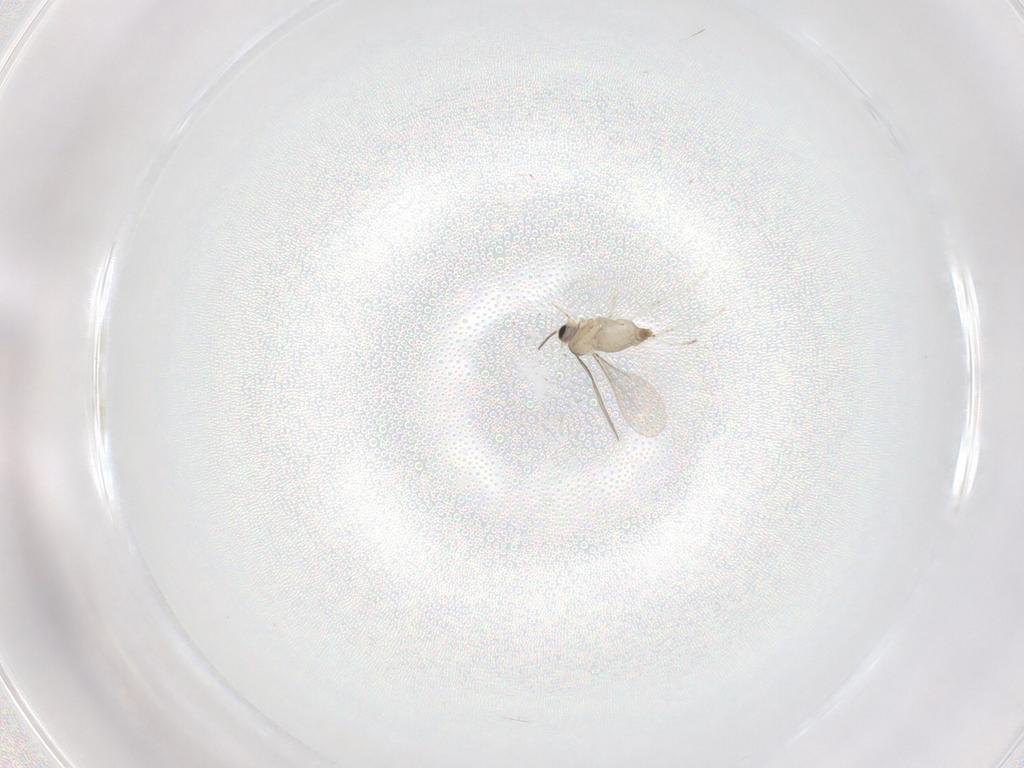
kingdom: Animalia
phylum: Arthropoda
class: Insecta
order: Diptera
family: Cecidomyiidae
